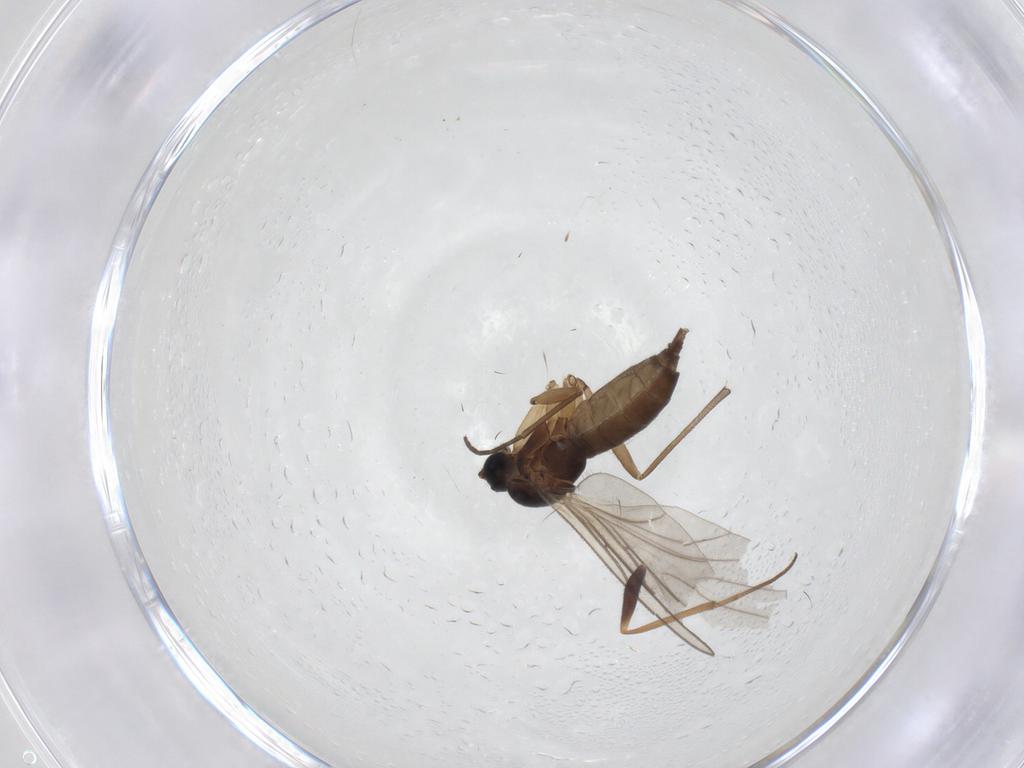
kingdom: Animalia
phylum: Arthropoda
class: Insecta
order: Diptera
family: Sciaridae
